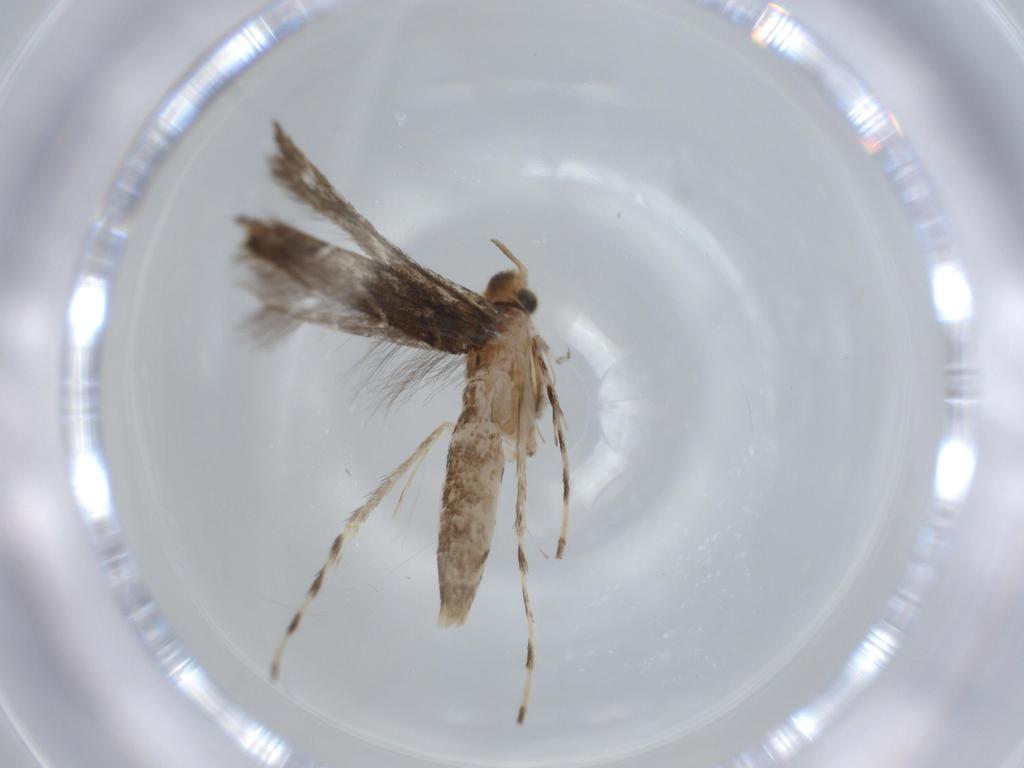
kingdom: Animalia
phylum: Arthropoda
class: Insecta
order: Lepidoptera
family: Gracillariidae
